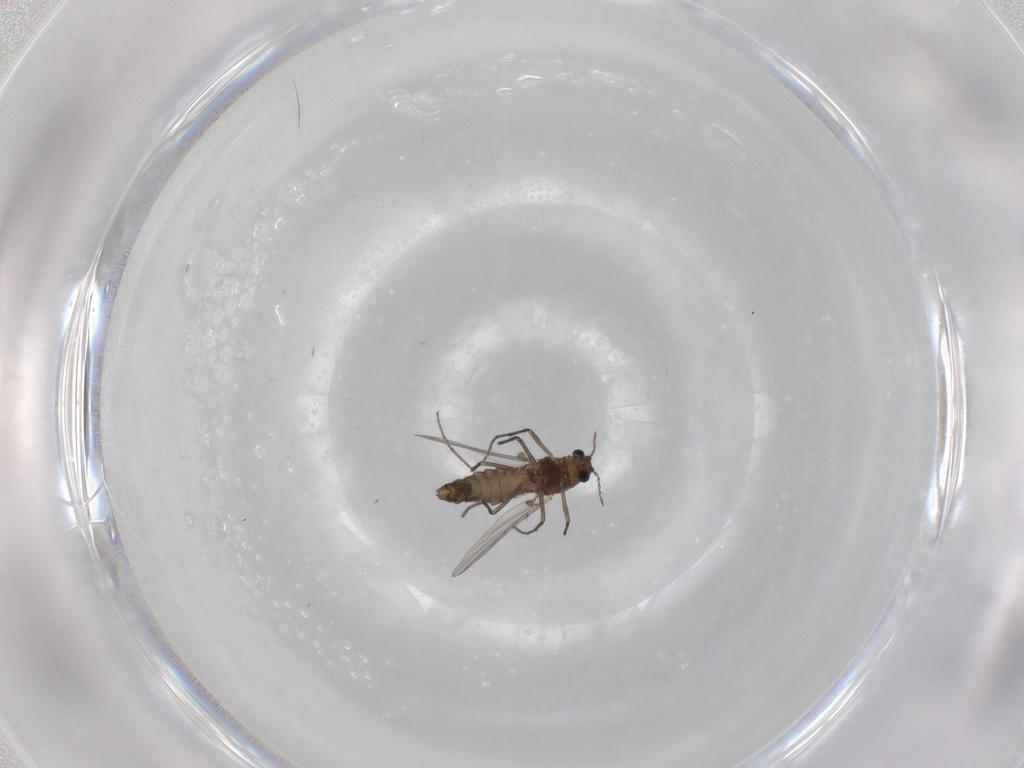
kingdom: Animalia
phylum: Arthropoda
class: Insecta
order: Diptera
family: Chironomidae
